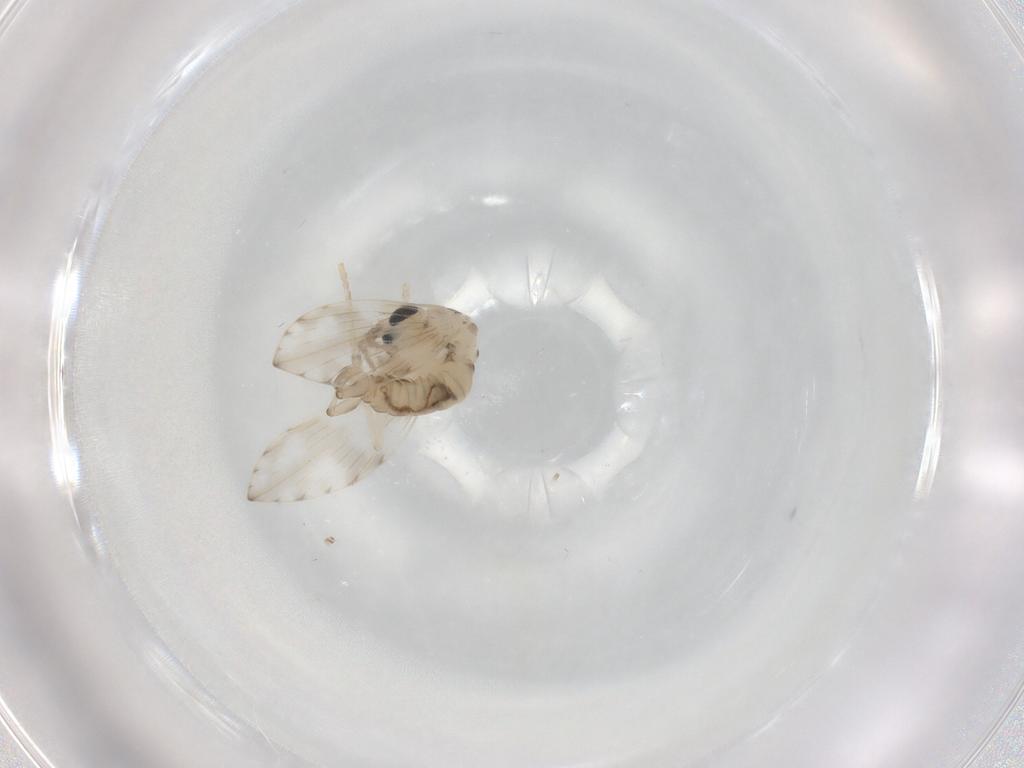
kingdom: Animalia
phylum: Arthropoda
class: Insecta
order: Diptera
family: Psychodidae
